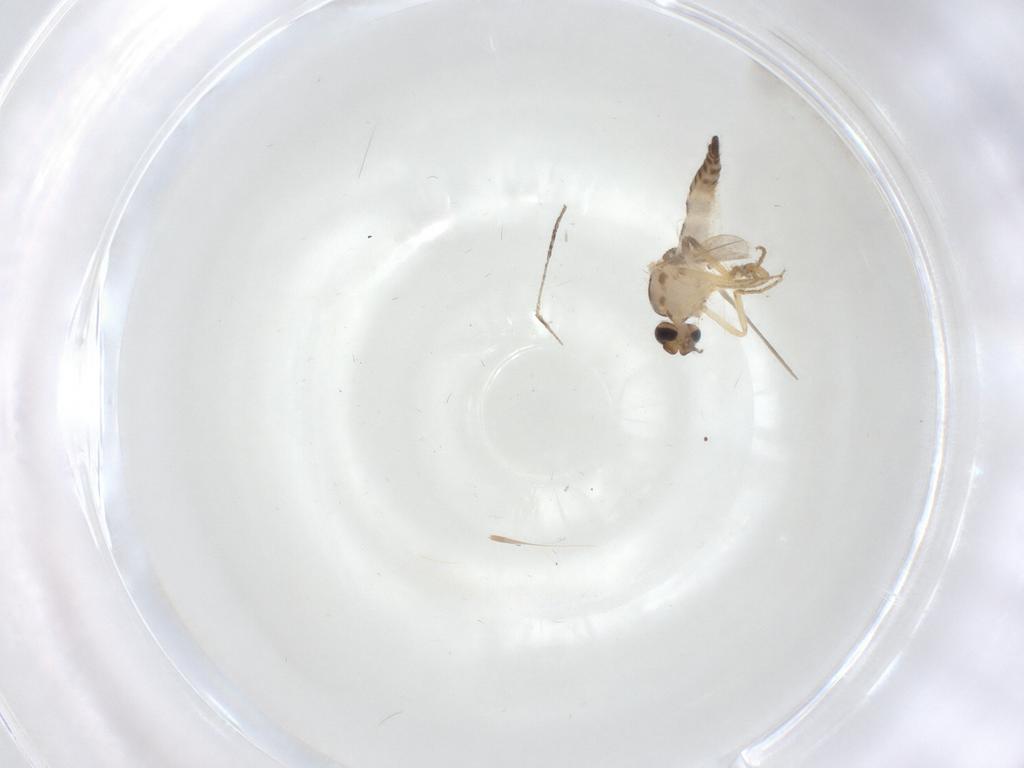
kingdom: Animalia
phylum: Arthropoda
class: Insecta
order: Diptera
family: Ceratopogonidae
